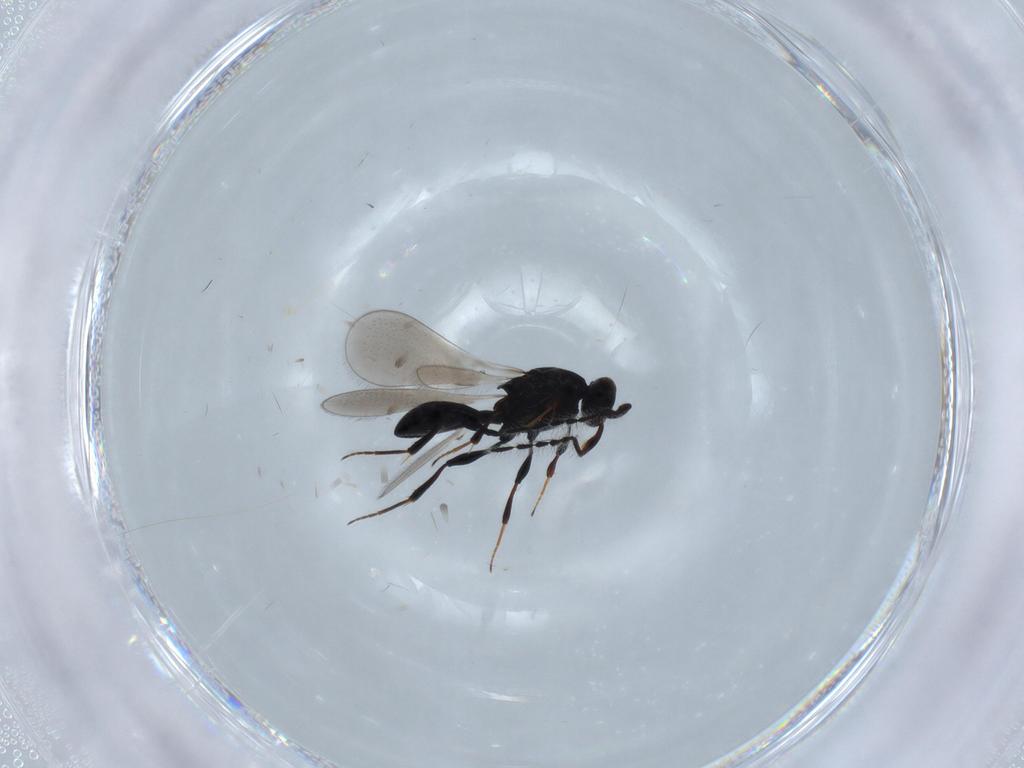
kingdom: Animalia
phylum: Arthropoda
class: Insecta
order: Hymenoptera
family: Platygastridae
